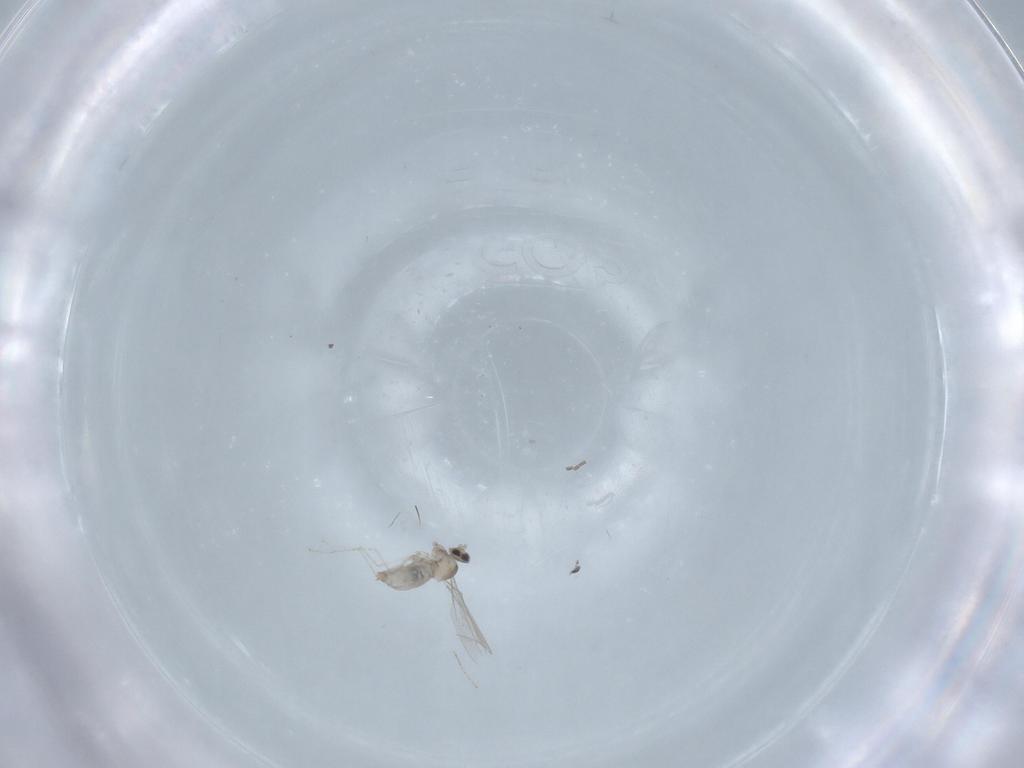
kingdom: Animalia
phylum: Arthropoda
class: Insecta
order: Diptera
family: Cecidomyiidae
